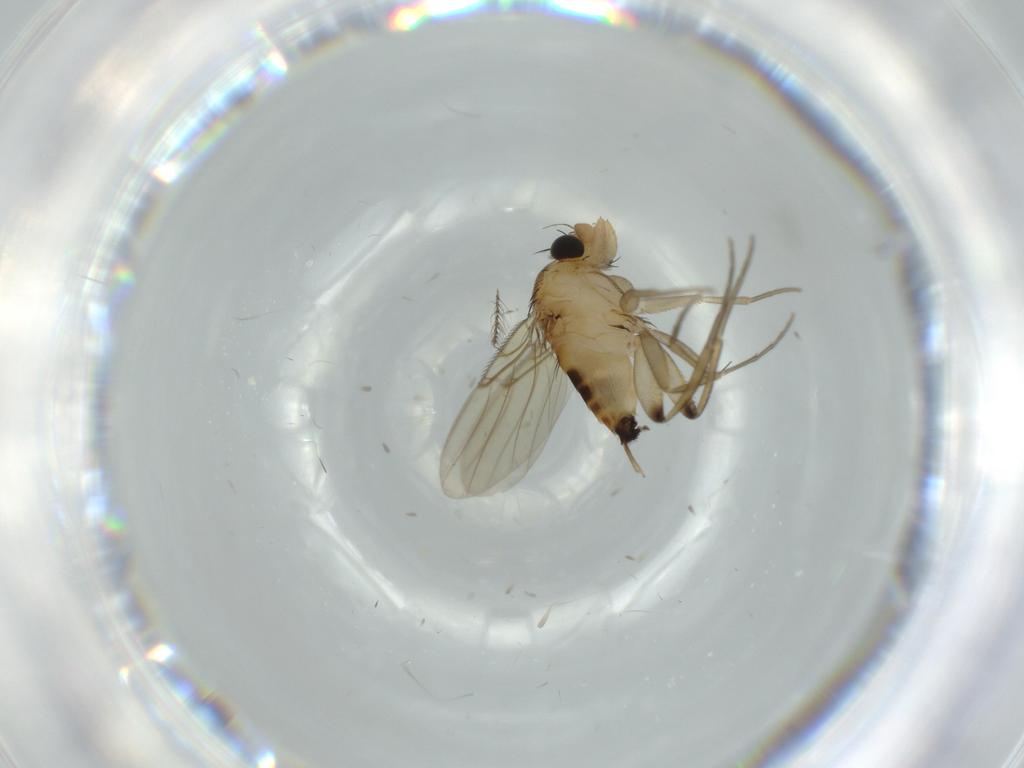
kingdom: Animalia
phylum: Arthropoda
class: Insecta
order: Diptera
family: Phoridae
